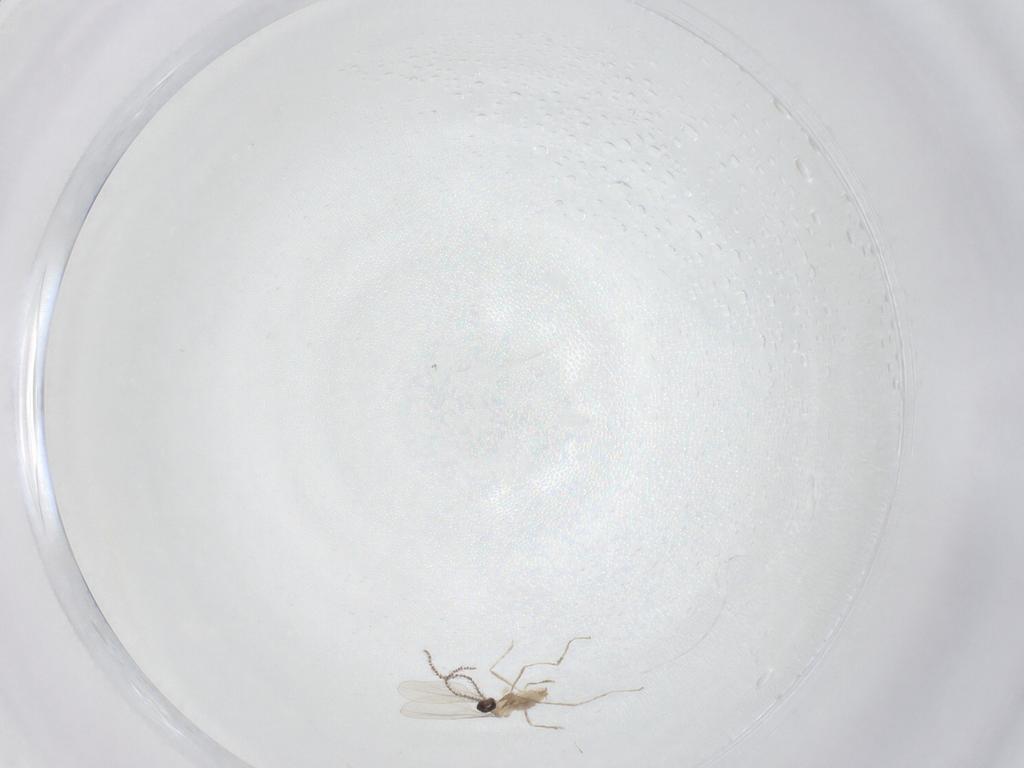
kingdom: Animalia
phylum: Arthropoda
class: Insecta
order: Diptera
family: Chironomidae
